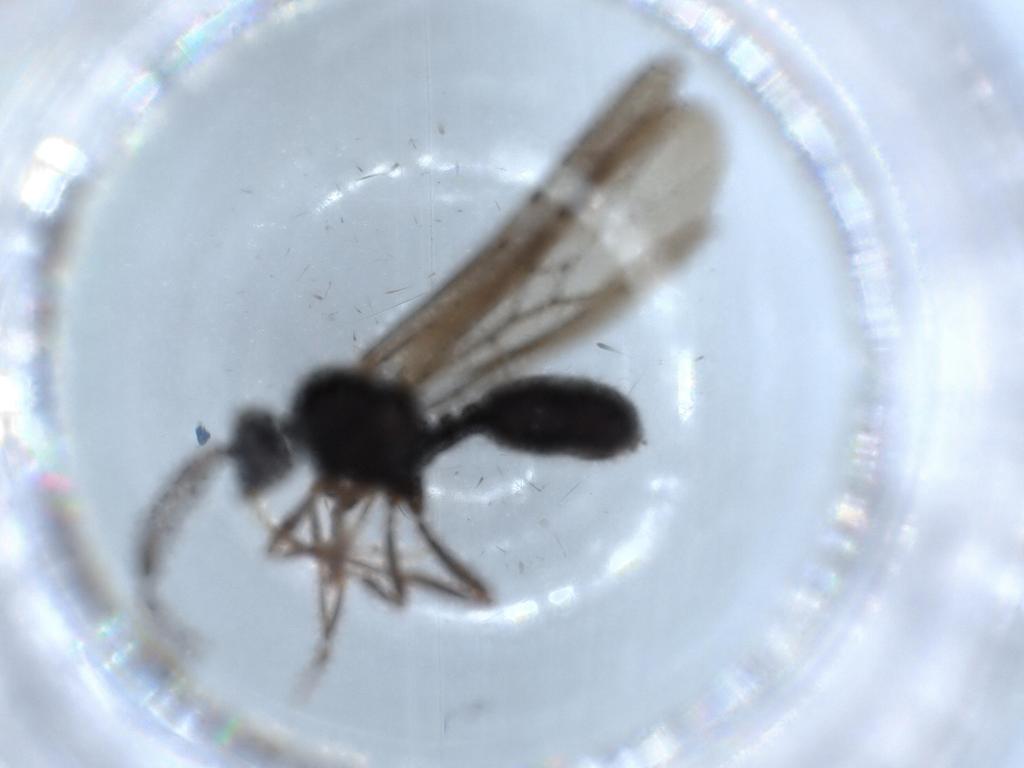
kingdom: Animalia
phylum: Arthropoda
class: Insecta
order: Hymenoptera
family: Formicidae
